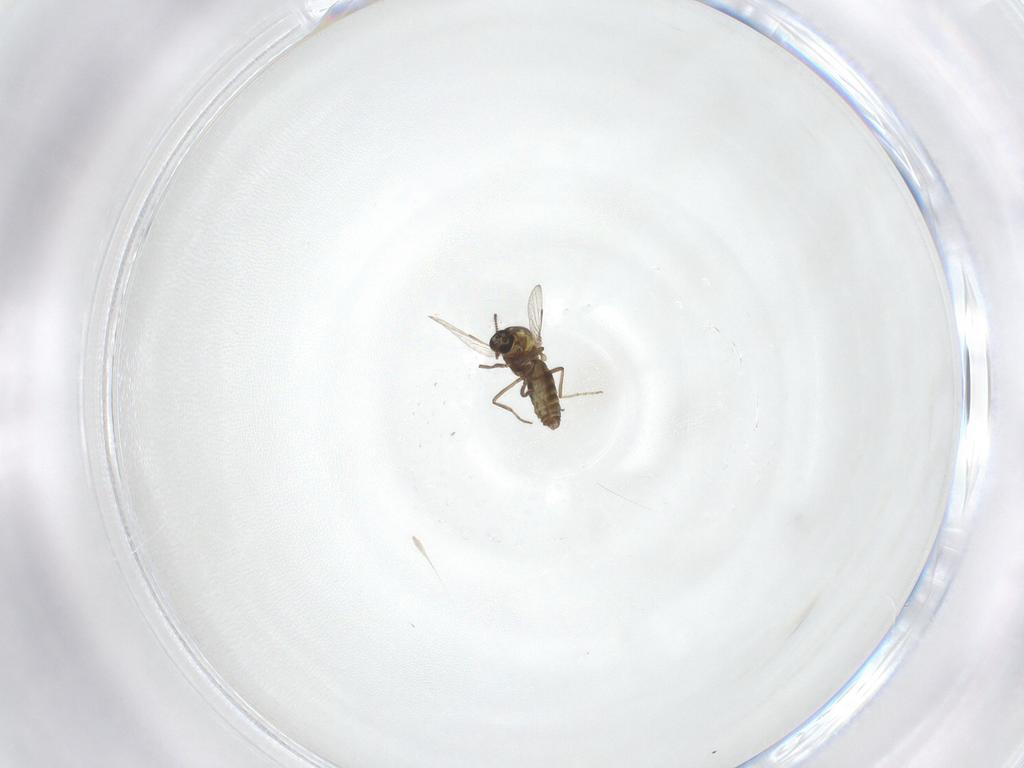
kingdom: Animalia
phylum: Arthropoda
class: Insecta
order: Diptera
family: Ceratopogonidae
